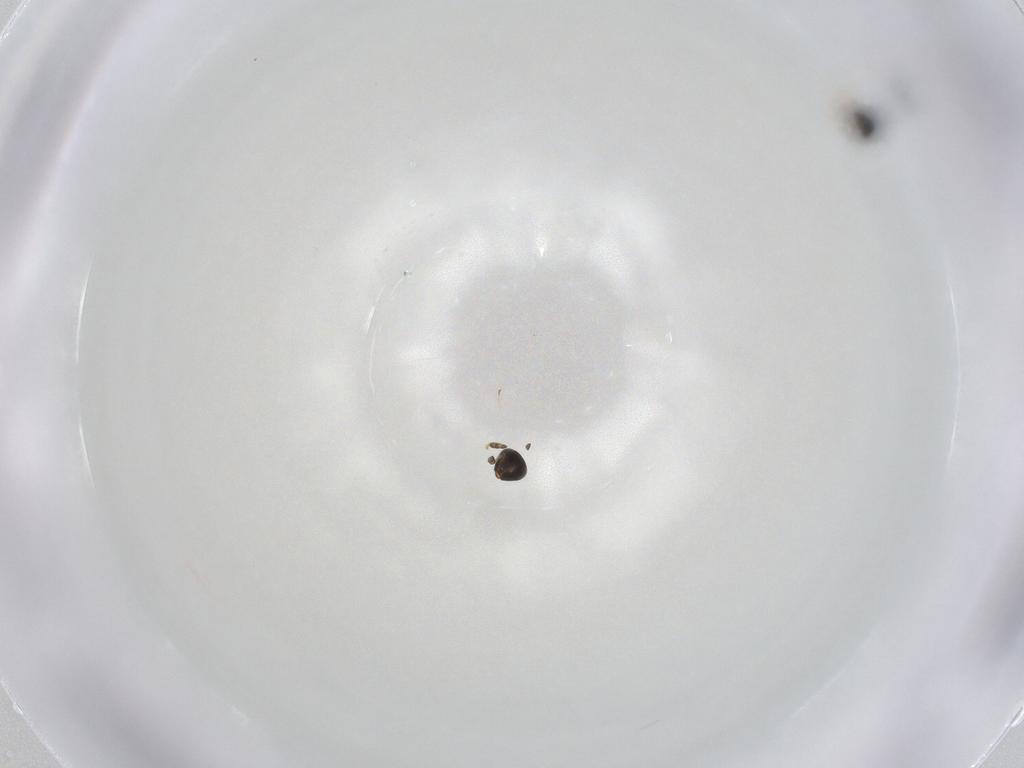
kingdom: Animalia
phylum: Arthropoda
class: Insecta
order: Hymenoptera
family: Platygastridae
